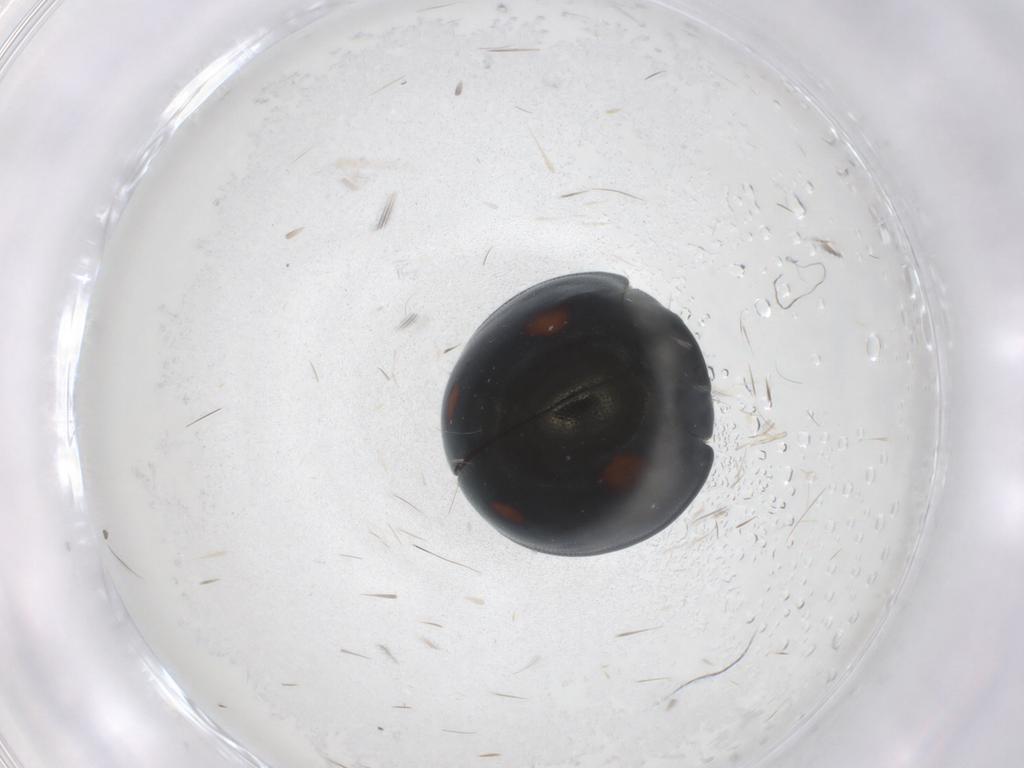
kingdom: Animalia
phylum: Arthropoda
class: Insecta
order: Coleoptera
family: Coccinellidae
